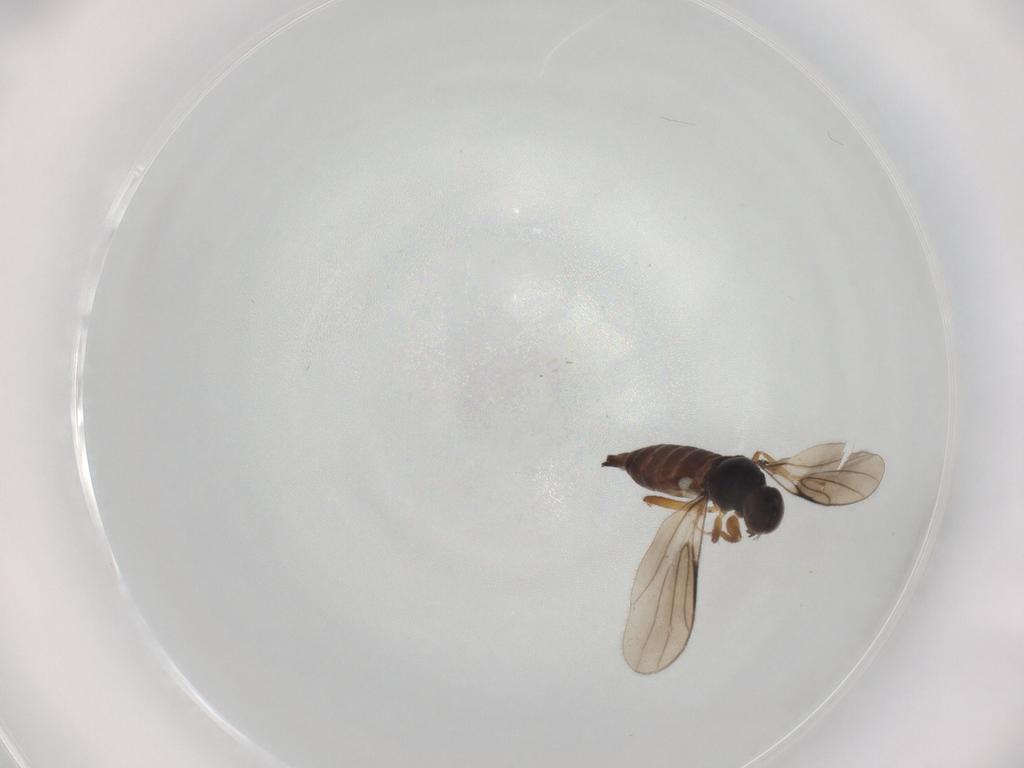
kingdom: Animalia
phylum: Arthropoda
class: Insecta
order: Diptera
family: Hybotidae
